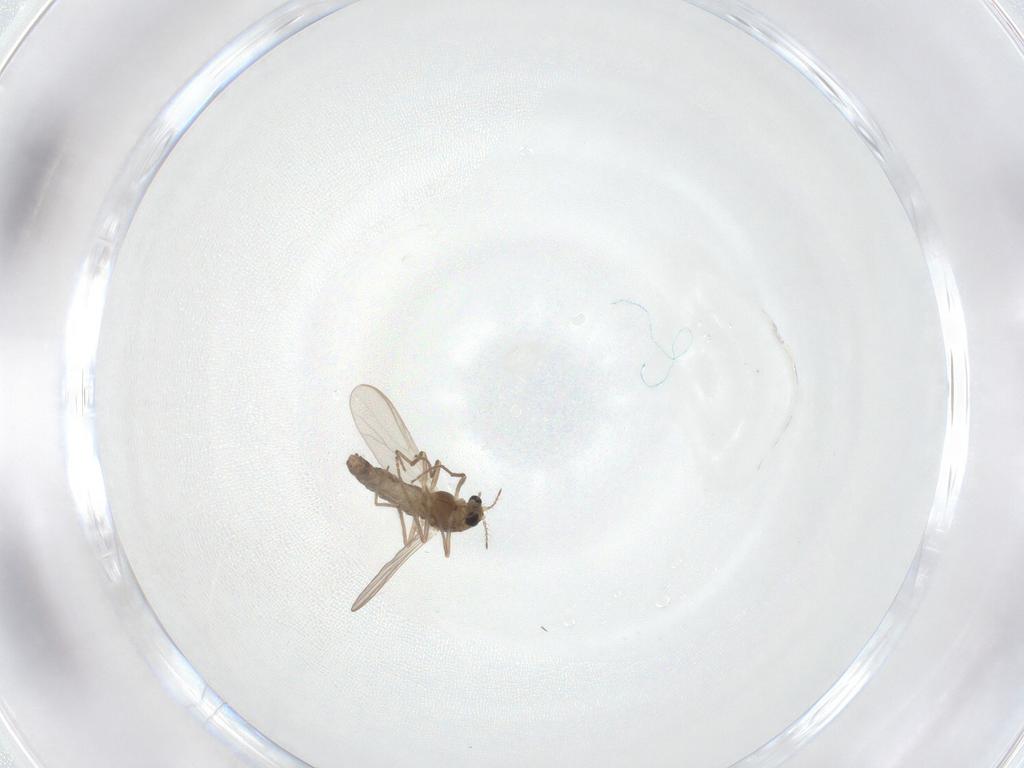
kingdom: Animalia
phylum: Arthropoda
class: Insecta
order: Diptera
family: Chironomidae
